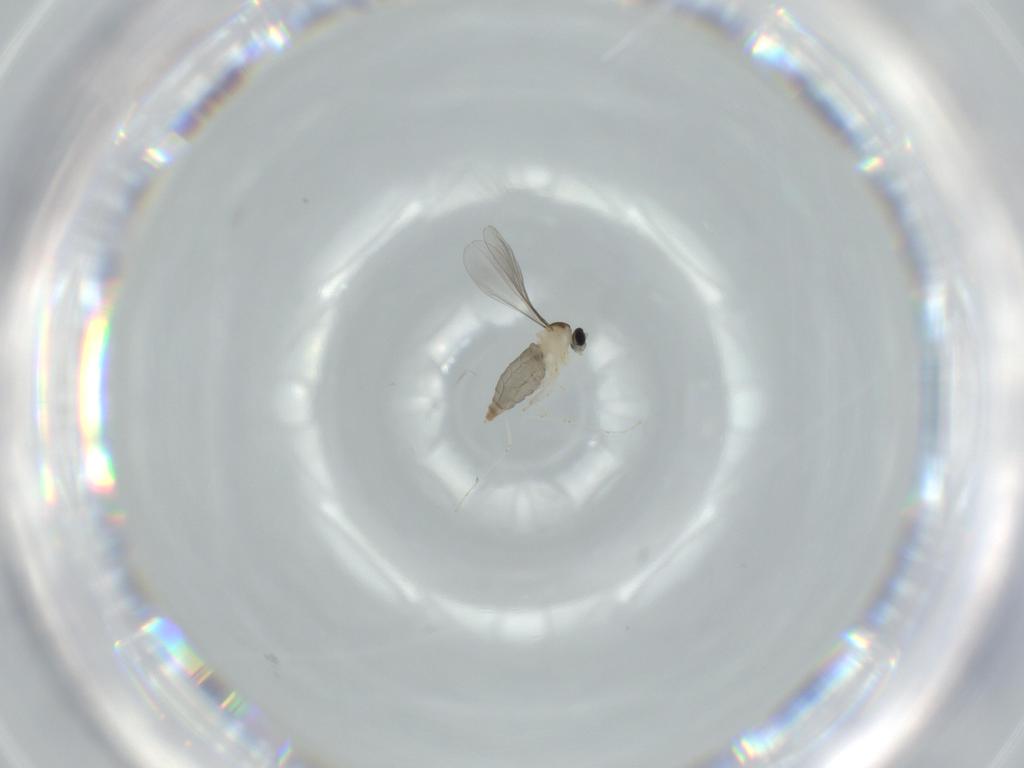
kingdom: Animalia
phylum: Arthropoda
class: Insecta
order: Diptera
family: Cecidomyiidae
